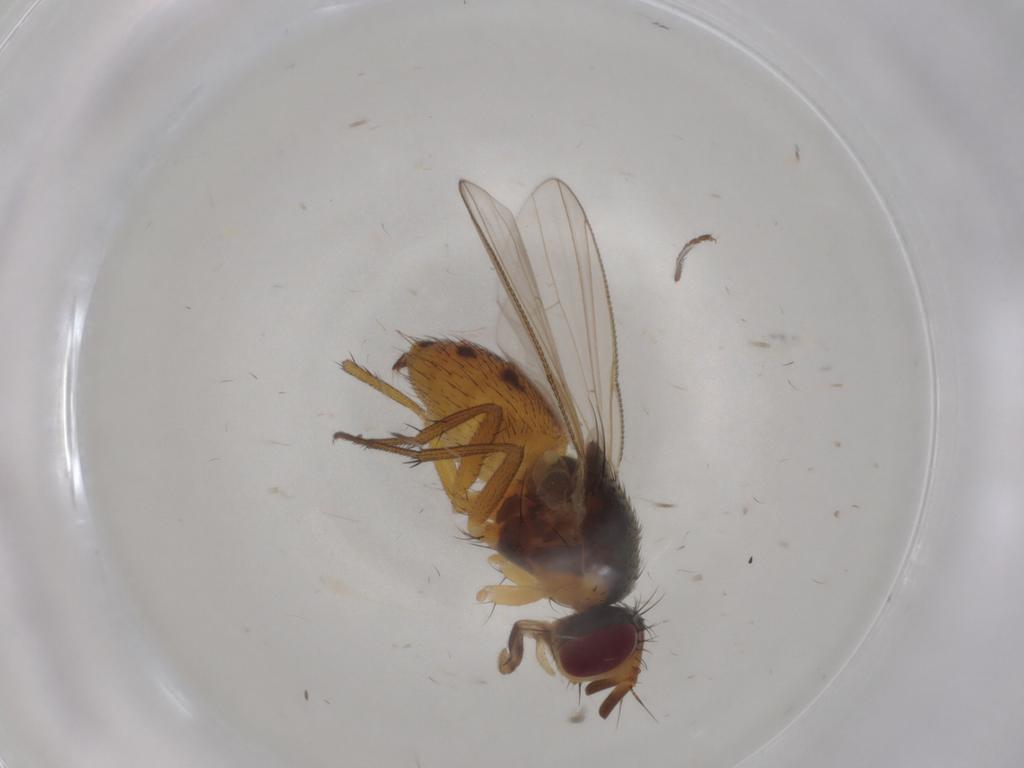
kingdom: Animalia
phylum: Arthropoda
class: Insecta
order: Diptera
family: Muscidae
